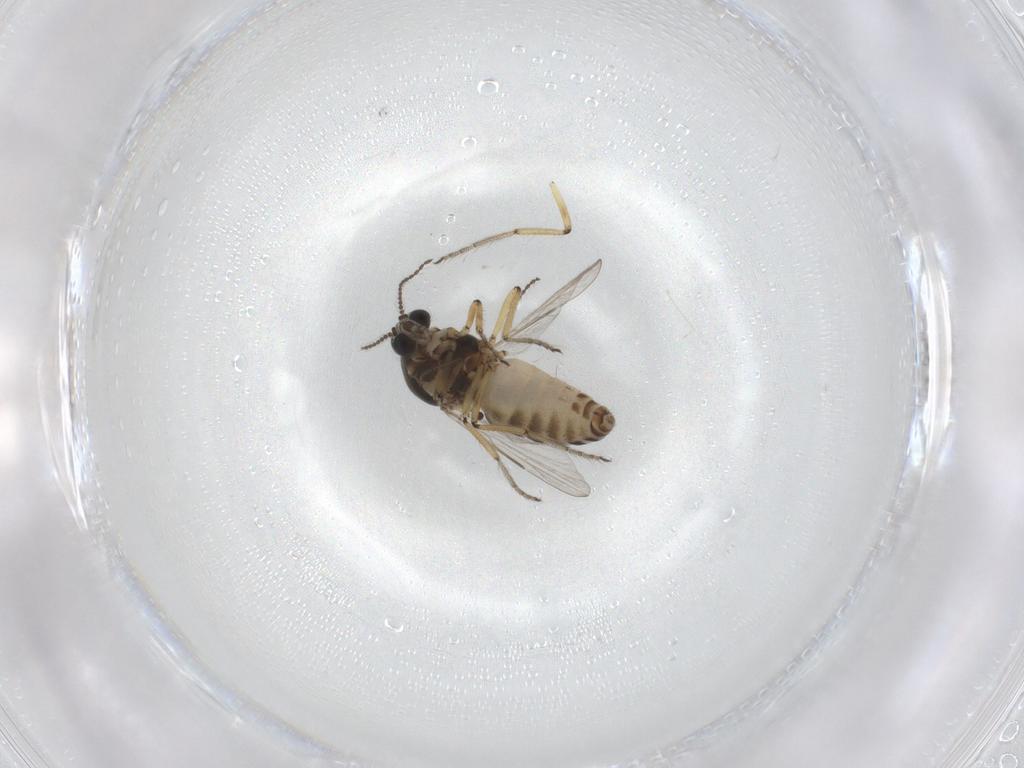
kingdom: Animalia
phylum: Arthropoda
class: Insecta
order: Diptera
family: Ceratopogonidae
